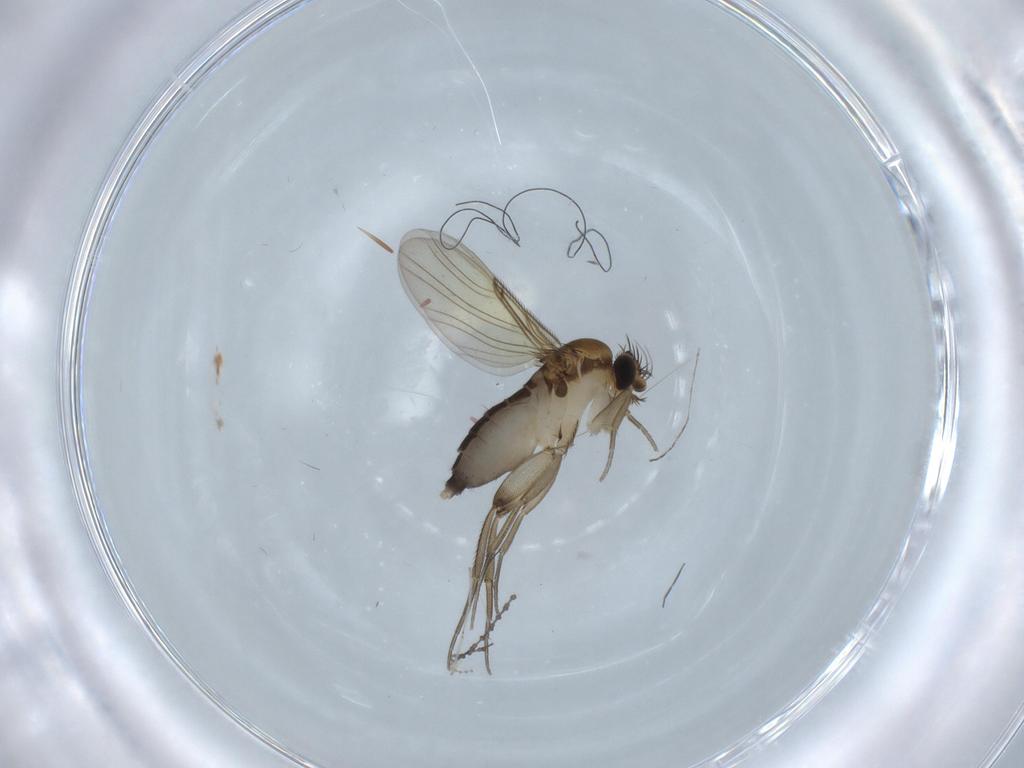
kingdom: Animalia
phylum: Arthropoda
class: Insecta
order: Diptera
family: Phoridae
